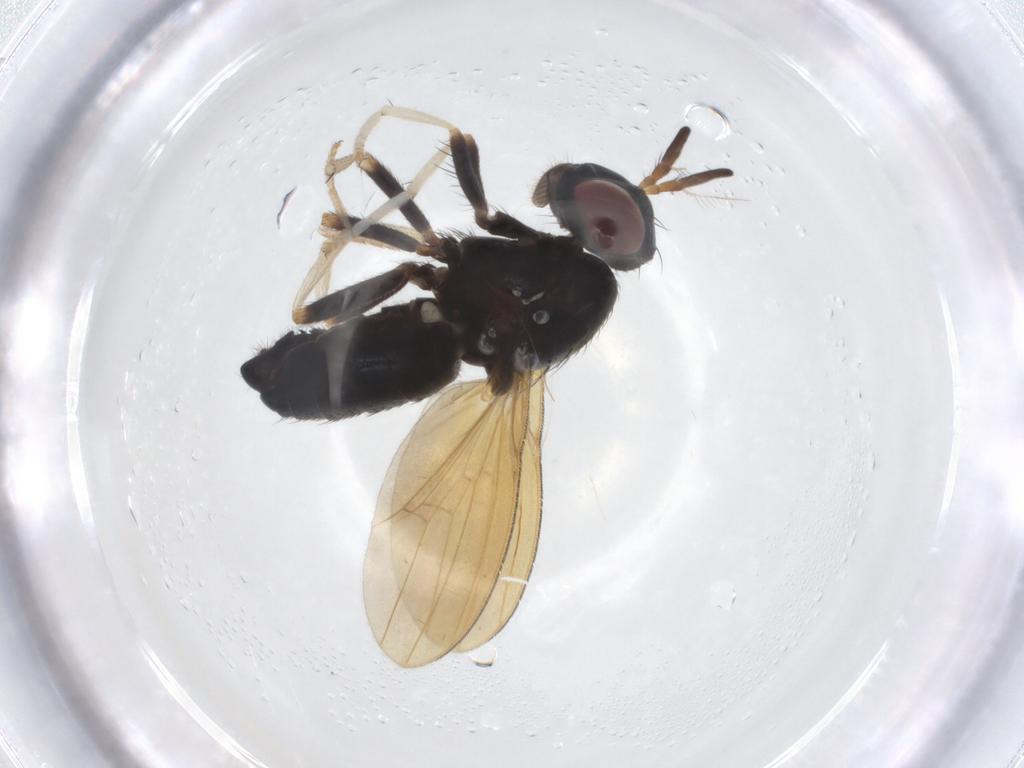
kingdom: Animalia
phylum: Arthropoda
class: Insecta
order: Diptera
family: Lauxaniidae
